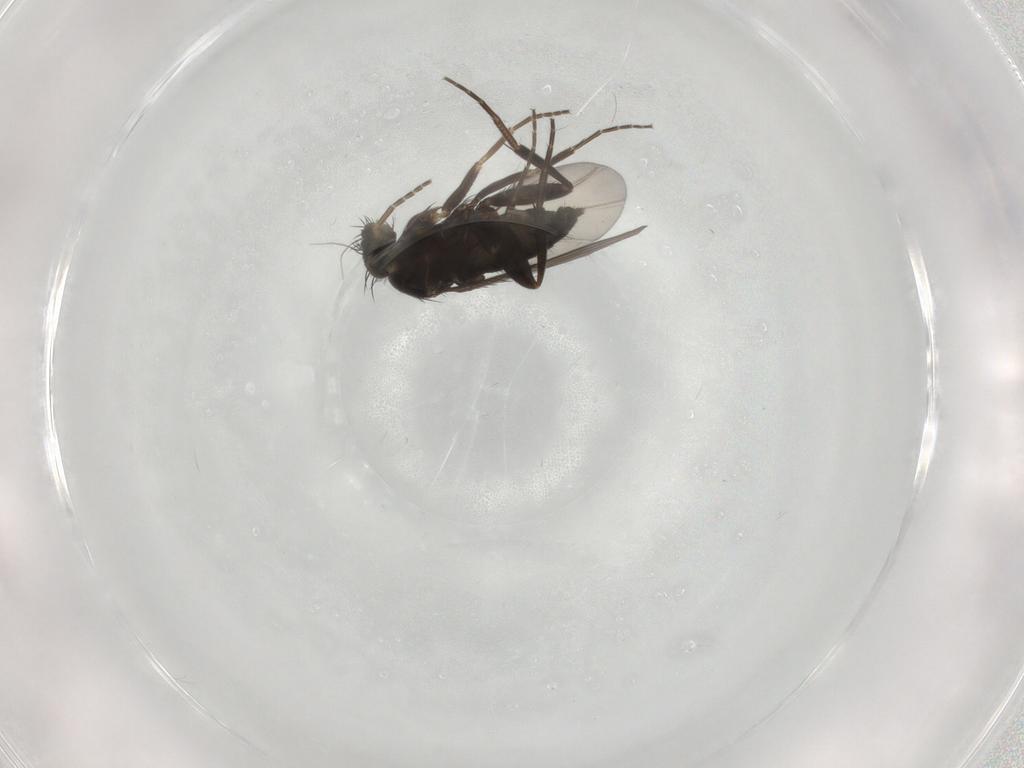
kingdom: Animalia
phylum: Arthropoda
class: Insecta
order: Diptera
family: Phoridae
